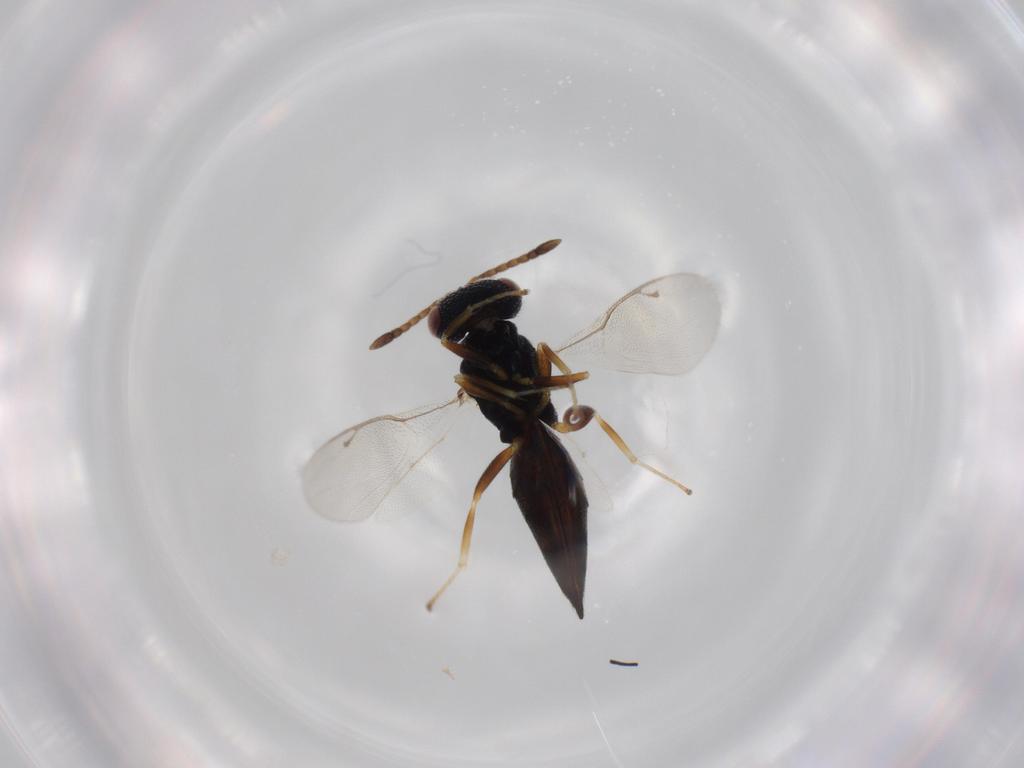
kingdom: Animalia
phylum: Arthropoda
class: Insecta
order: Hymenoptera
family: Pteromalidae
